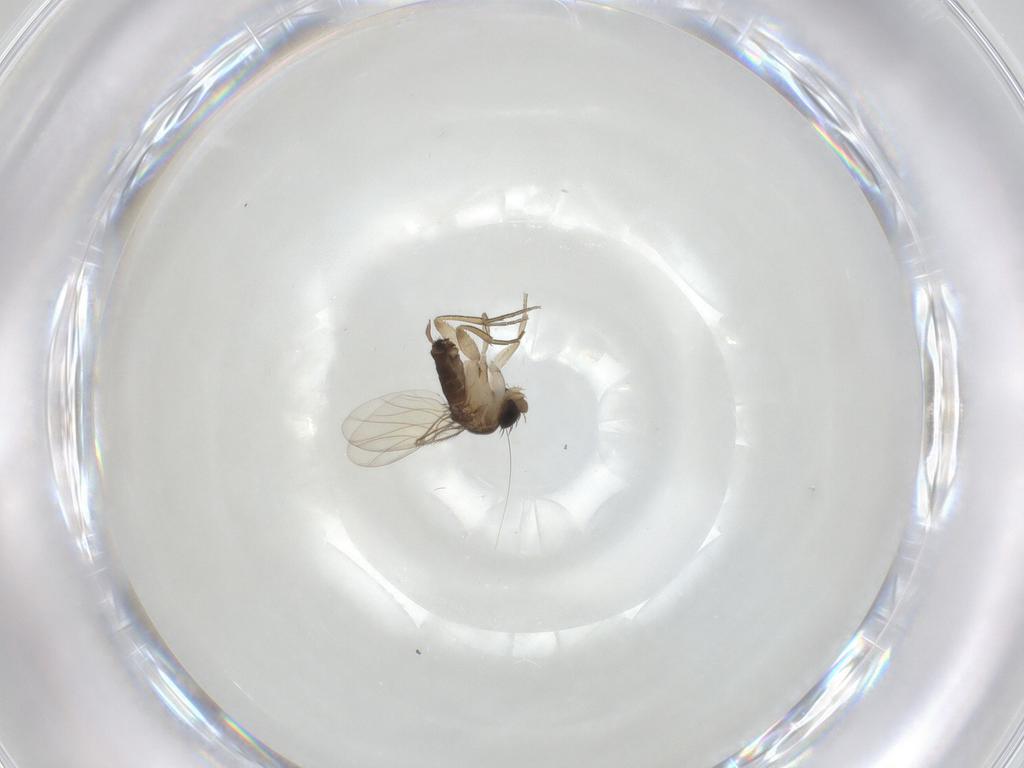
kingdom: Animalia
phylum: Arthropoda
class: Insecta
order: Diptera
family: Phoridae
